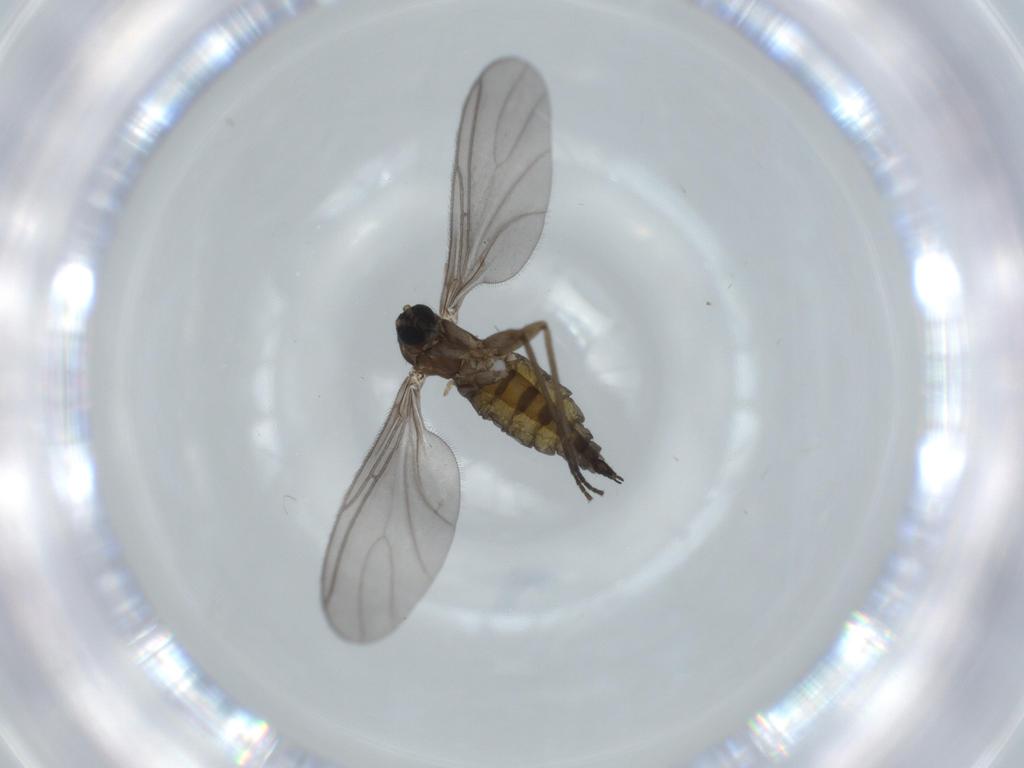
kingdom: Animalia
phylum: Arthropoda
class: Insecta
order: Diptera
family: Sciaridae
